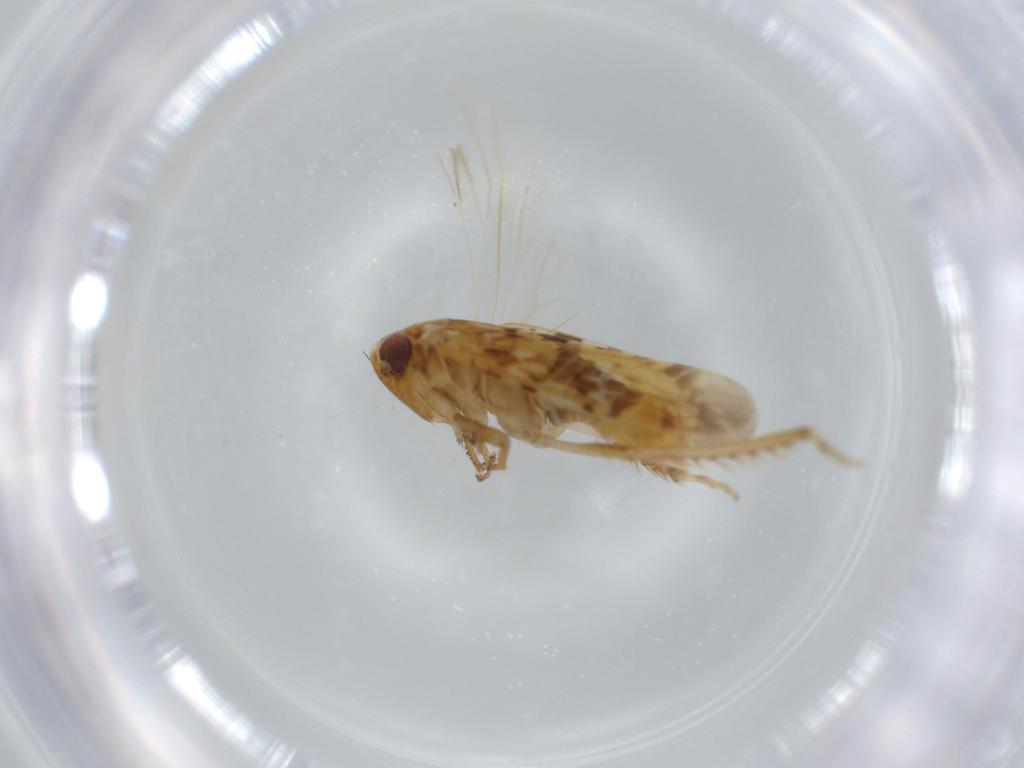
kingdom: Animalia
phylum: Arthropoda
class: Insecta
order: Hemiptera
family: Cicadellidae
